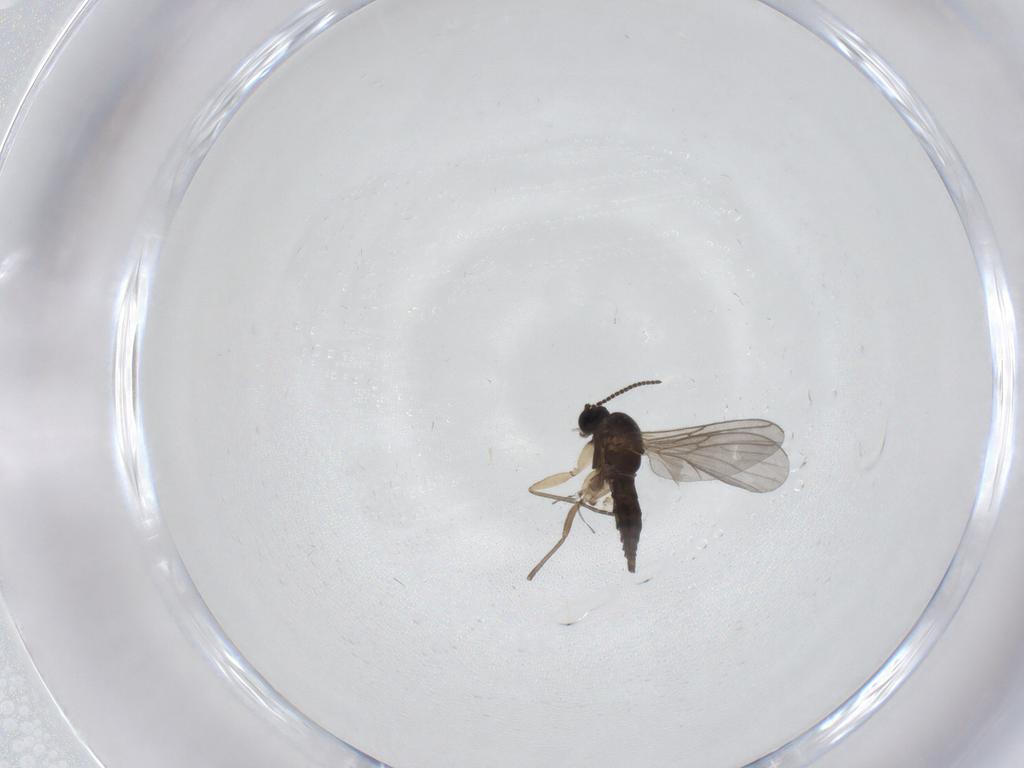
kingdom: Animalia
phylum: Arthropoda
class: Insecta
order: Diptera
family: Sciaridae
